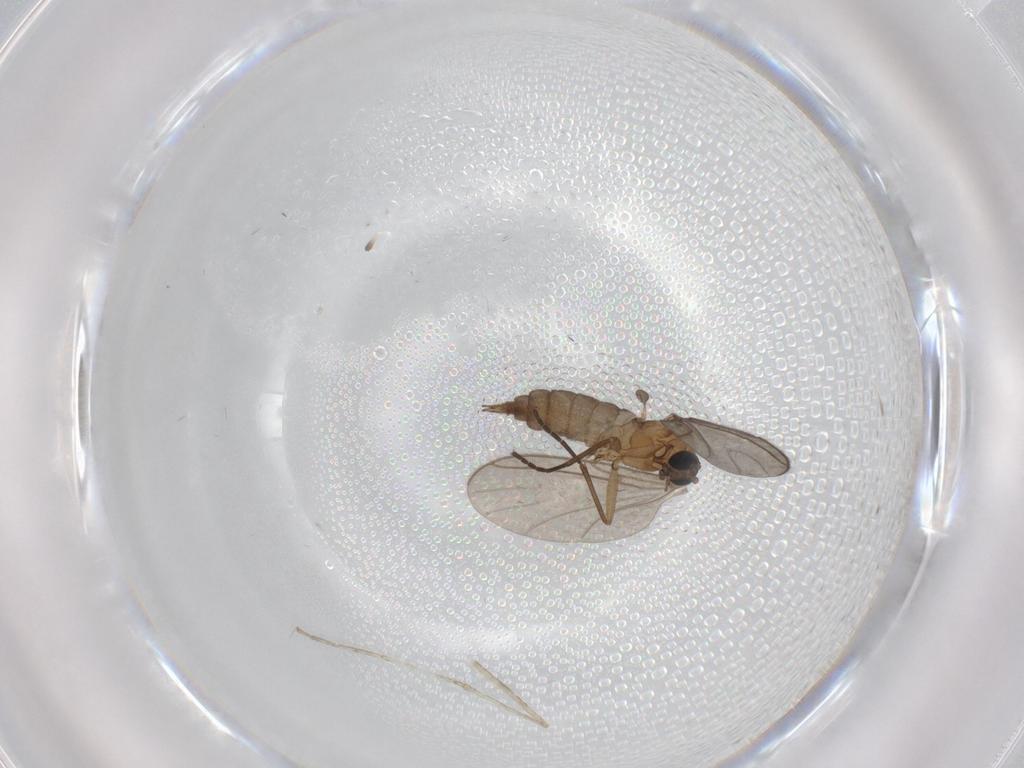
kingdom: Animalia
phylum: Arthropoda
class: Insecta
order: Diptera
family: Sciaridae
